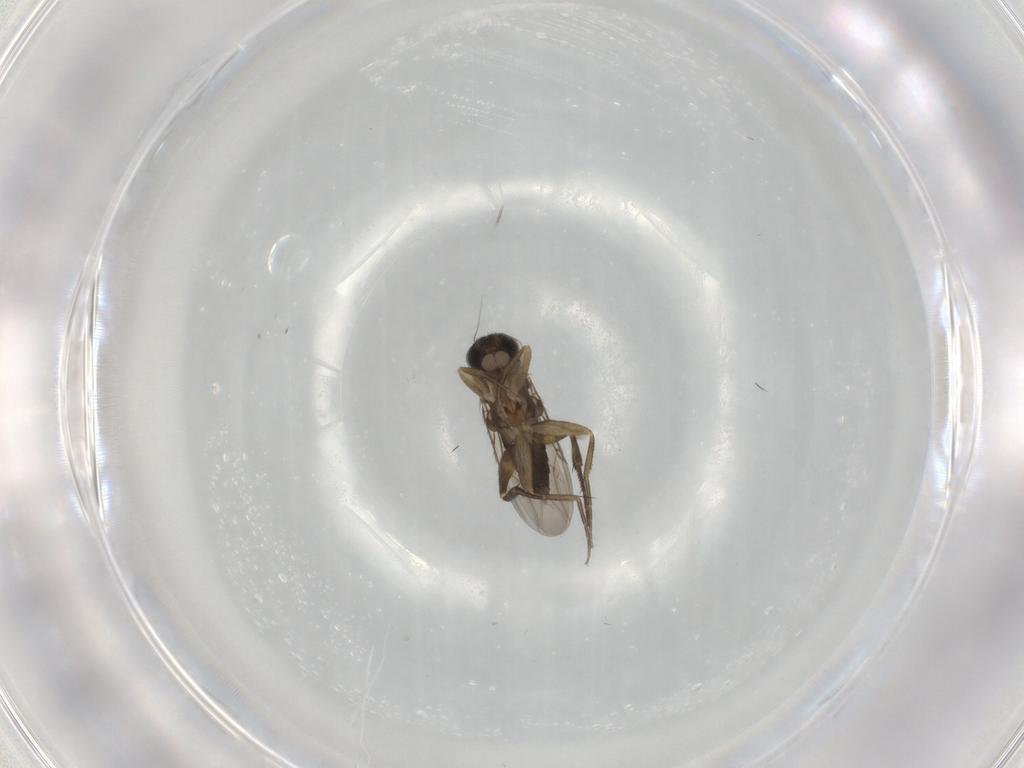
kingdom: Animalia
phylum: Arthropoda
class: Insecta
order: Diptera
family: Phoridae
